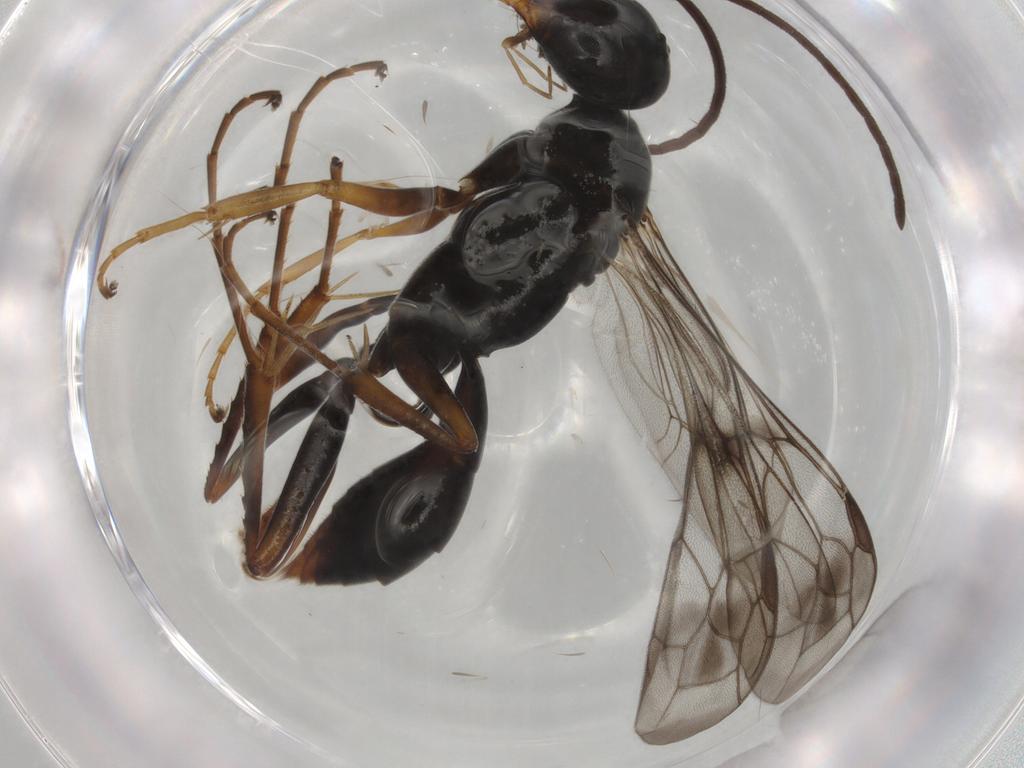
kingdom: Animalia
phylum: Arthropoda
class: Insecta
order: Hymenoptera
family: Pompilidae
